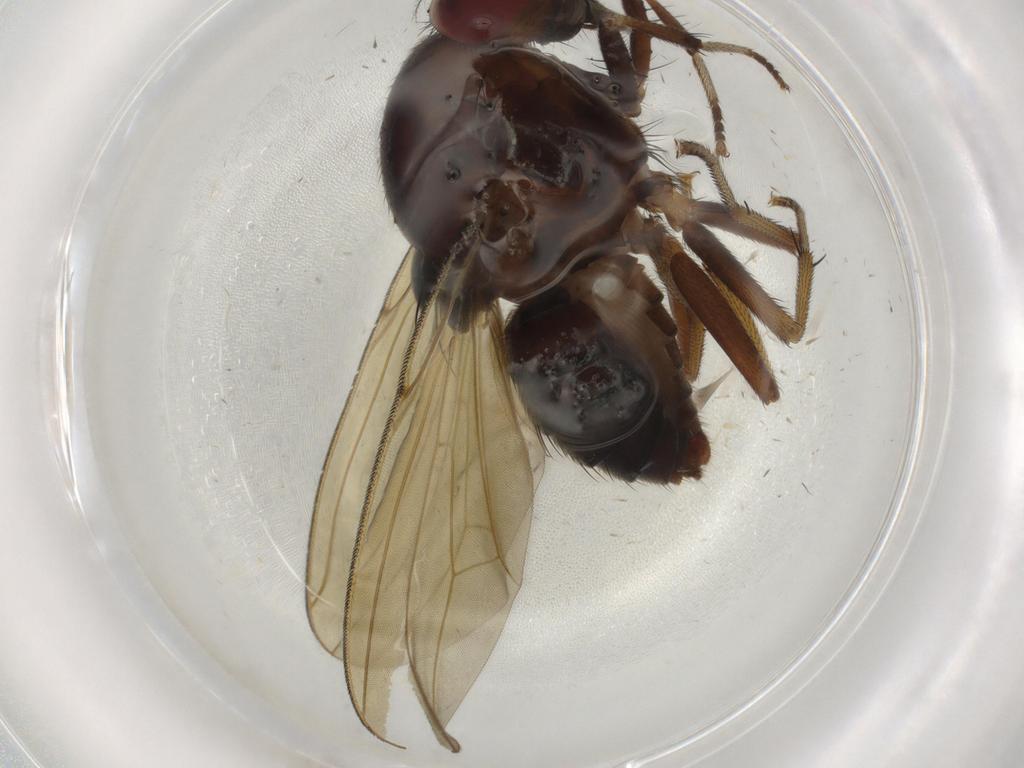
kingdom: Animalia
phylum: Arthropoda
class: Insecta
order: Diptera
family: Sciaridae
